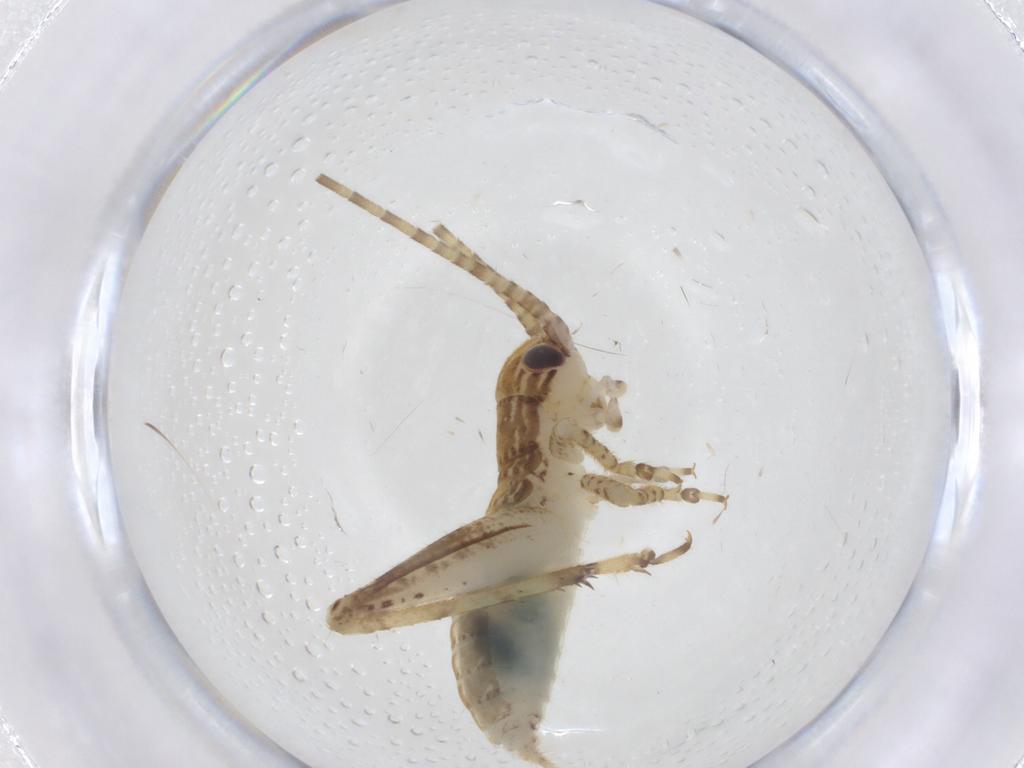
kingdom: Animalia
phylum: Arthropoda
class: Insecta
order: Orthoptera
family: Gryllidae
